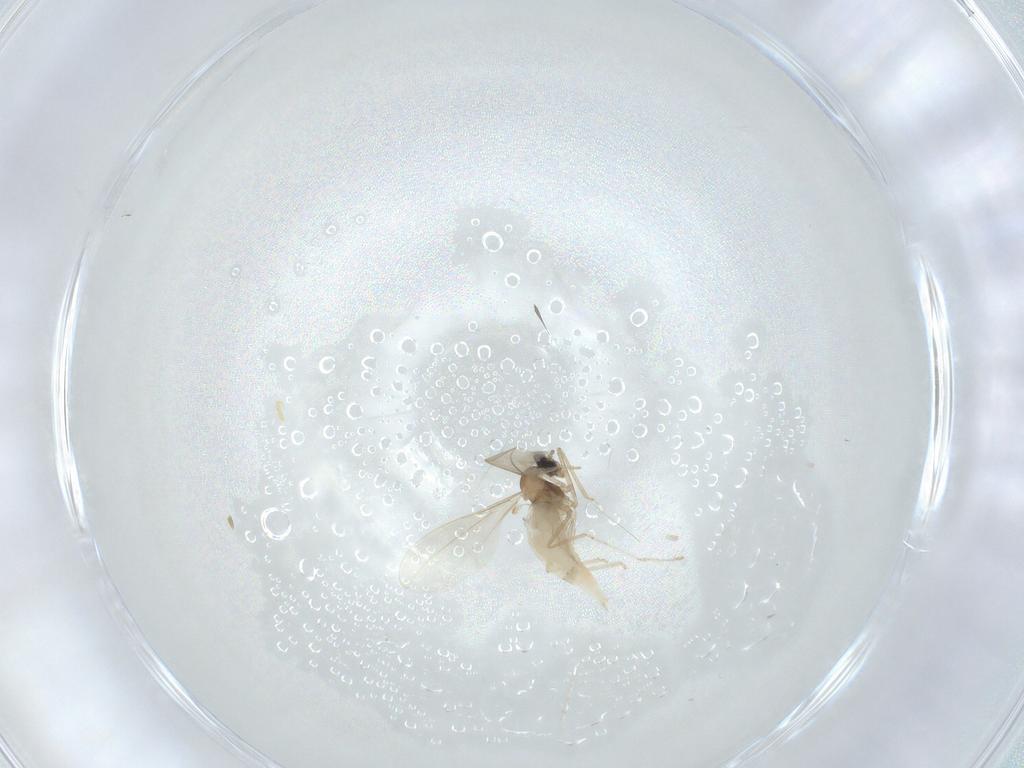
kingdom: Animalia
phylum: Arthropoda
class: Insecta
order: Diptera
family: Cecidomyiidae
